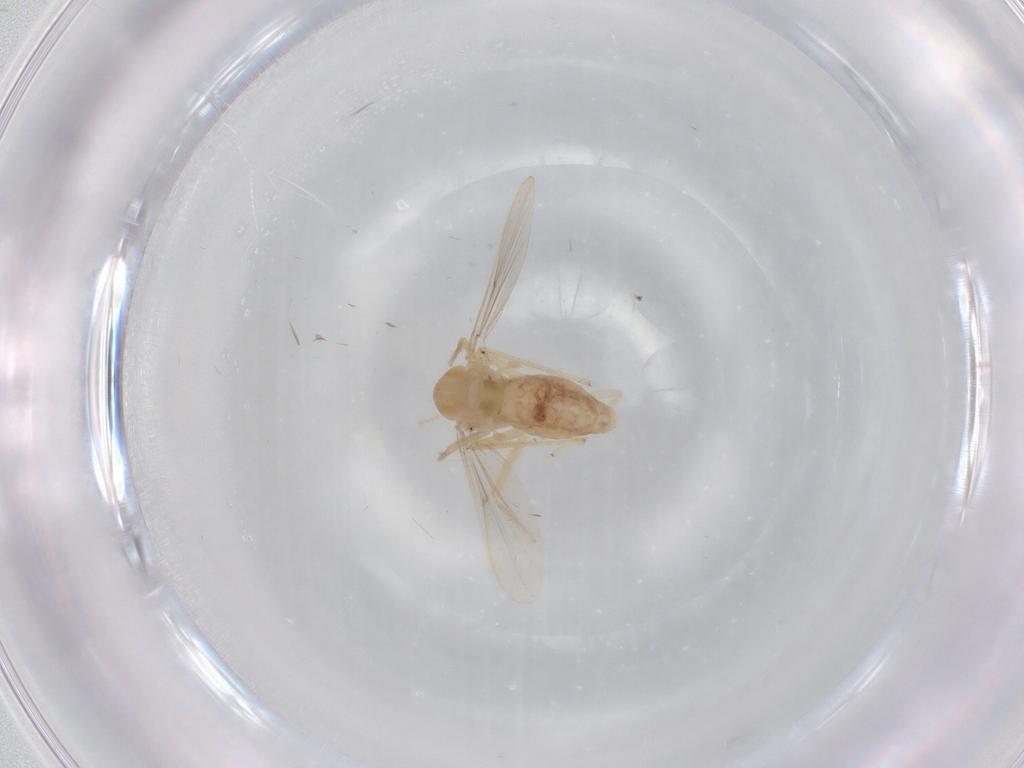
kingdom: Animalia
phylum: Arthropoda
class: Insecta
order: Diptera
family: Chironomidae
